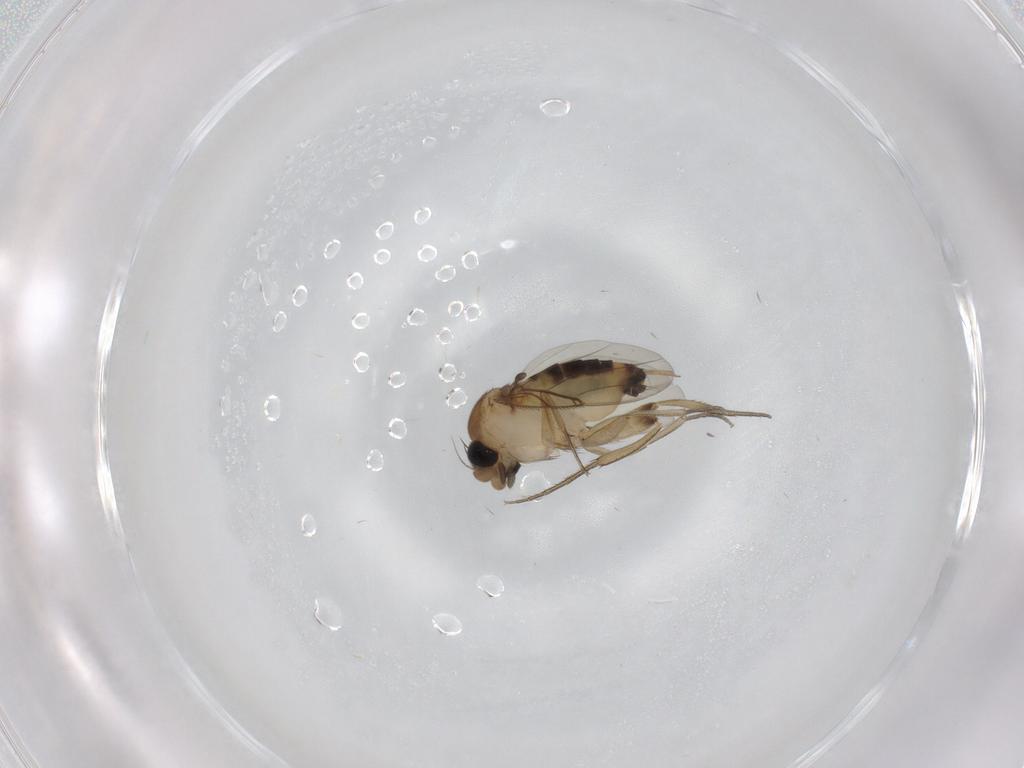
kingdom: Animalia
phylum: Arthropoda
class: Insecta
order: Diptera
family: Phoridae
